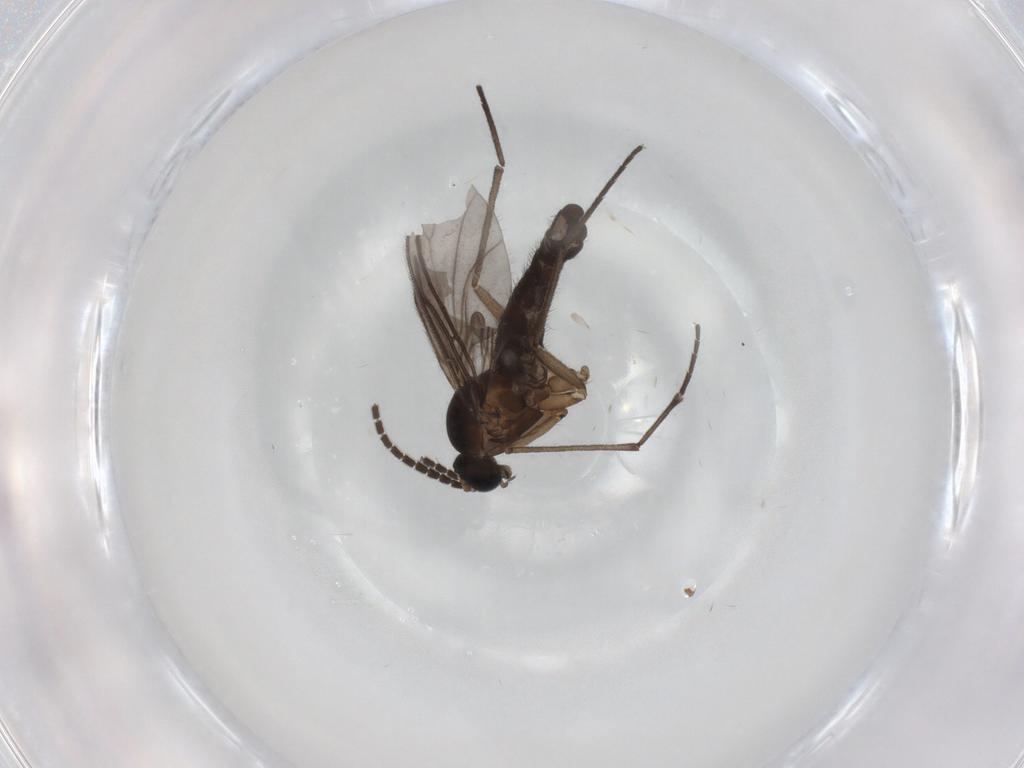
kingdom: Animalia
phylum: Arthropoda
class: Insecta
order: Diptera
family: Sciaridae
